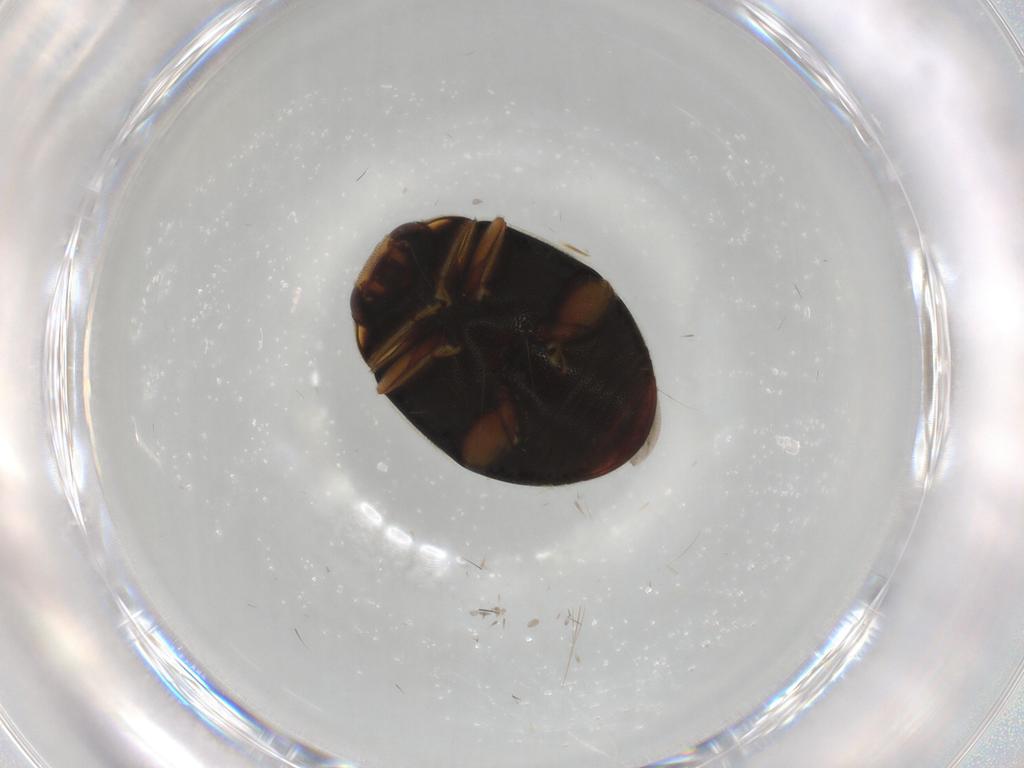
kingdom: Animalia
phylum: Arthropoda
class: Insecta
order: Coleoptera
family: Coccinellidae
